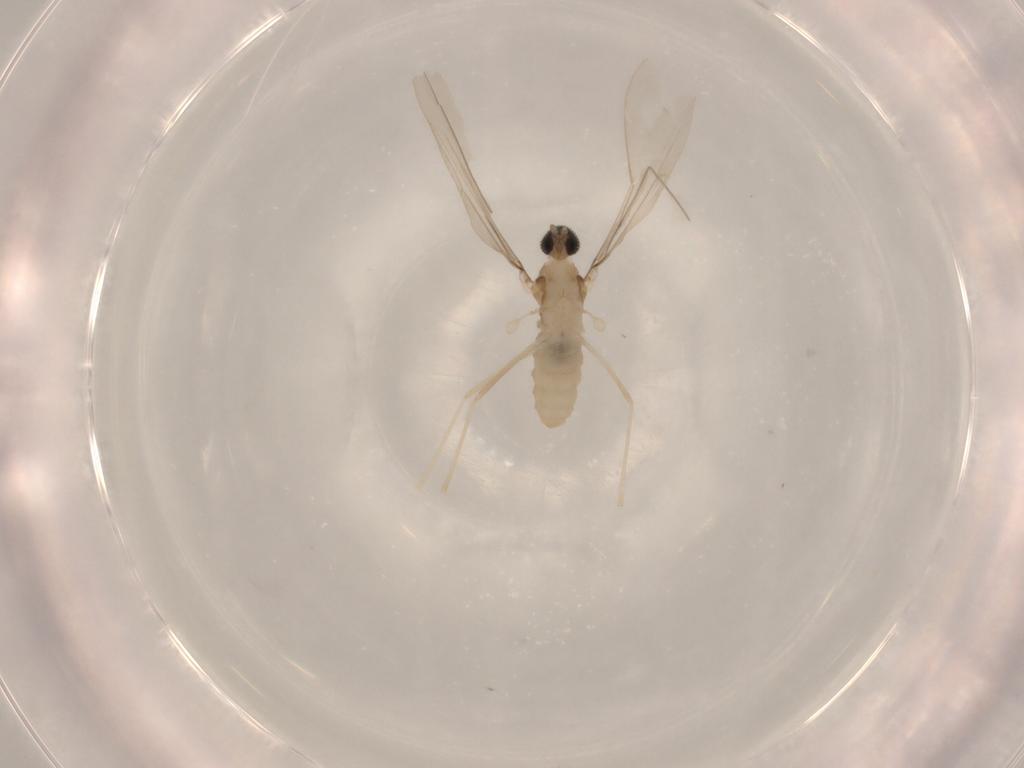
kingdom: Animalia
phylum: Arthropoda
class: Insecta
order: Diptera
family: Cecidomyiidae
